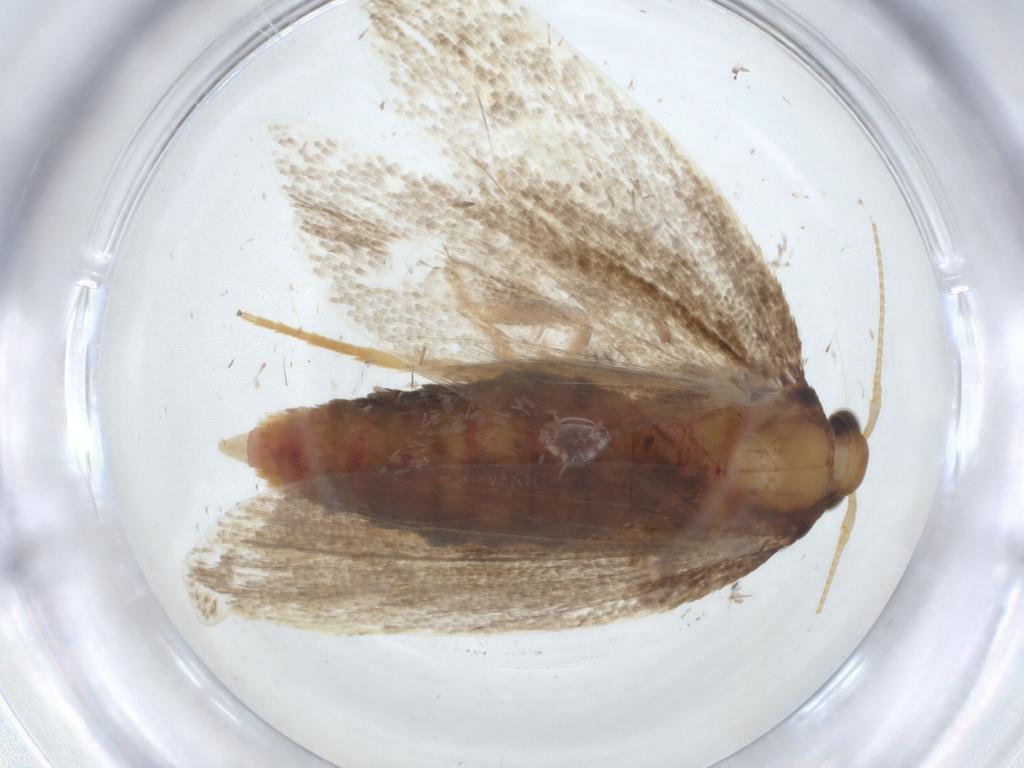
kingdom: Animalia
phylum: Arthropoda
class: Insecta
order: Lepidoptera
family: Lecithoceridae
